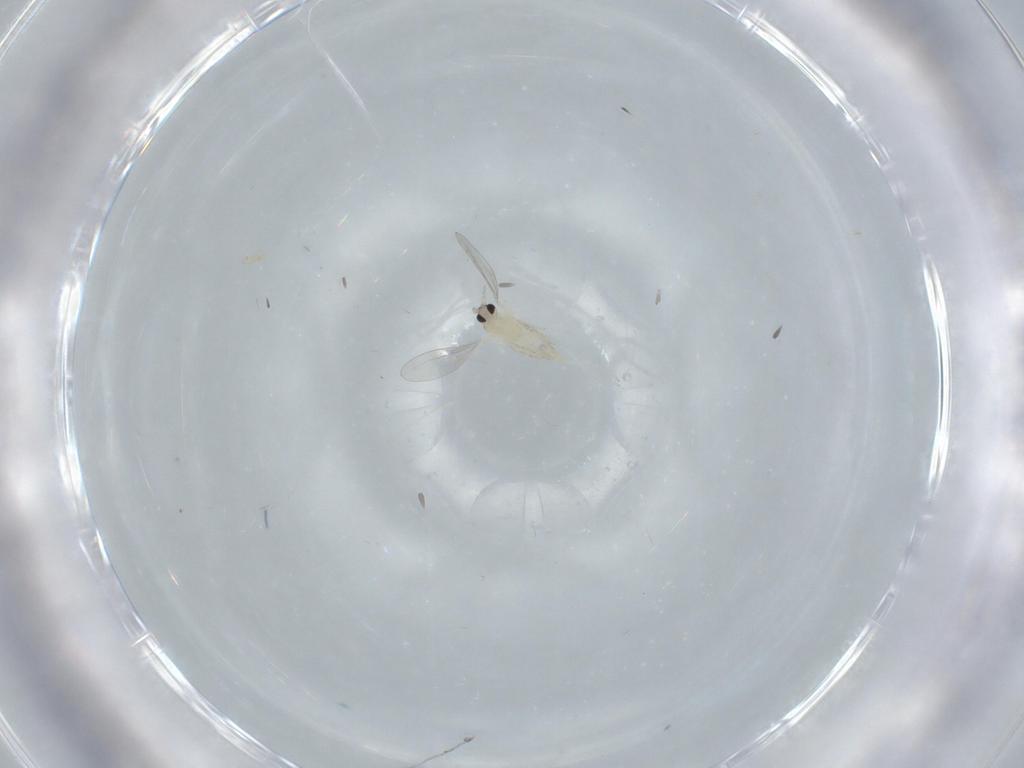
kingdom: Animalia
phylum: Arthropoda
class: Insecta
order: Diptera
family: Cecidomyiidae
